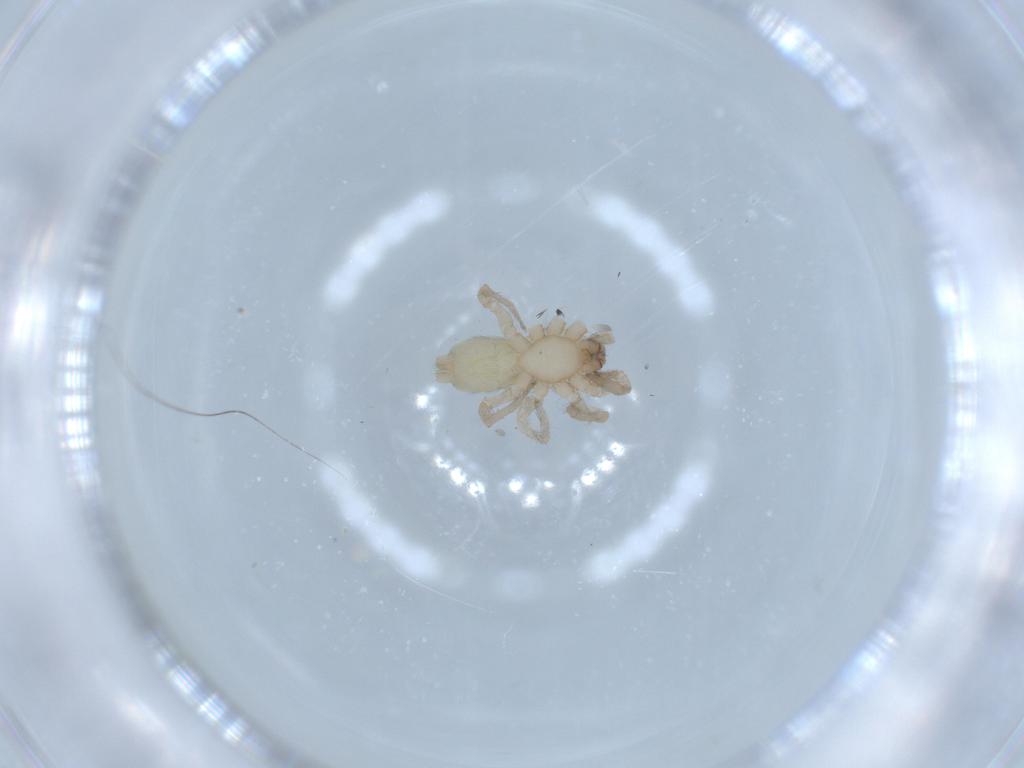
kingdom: Animalia
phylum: Arthropoda
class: Arachnida
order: Araneae
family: Gnaphosidae
